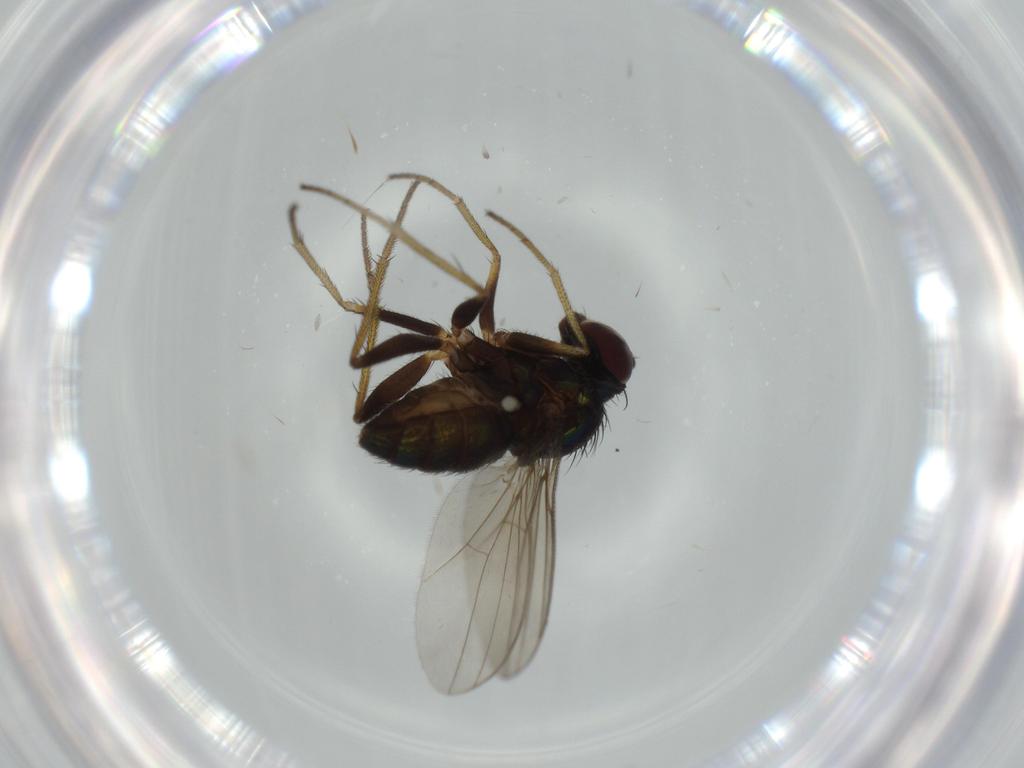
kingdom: Animalia
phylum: Arthropoda
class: Insecta
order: Diptera
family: Dolichopodidae
